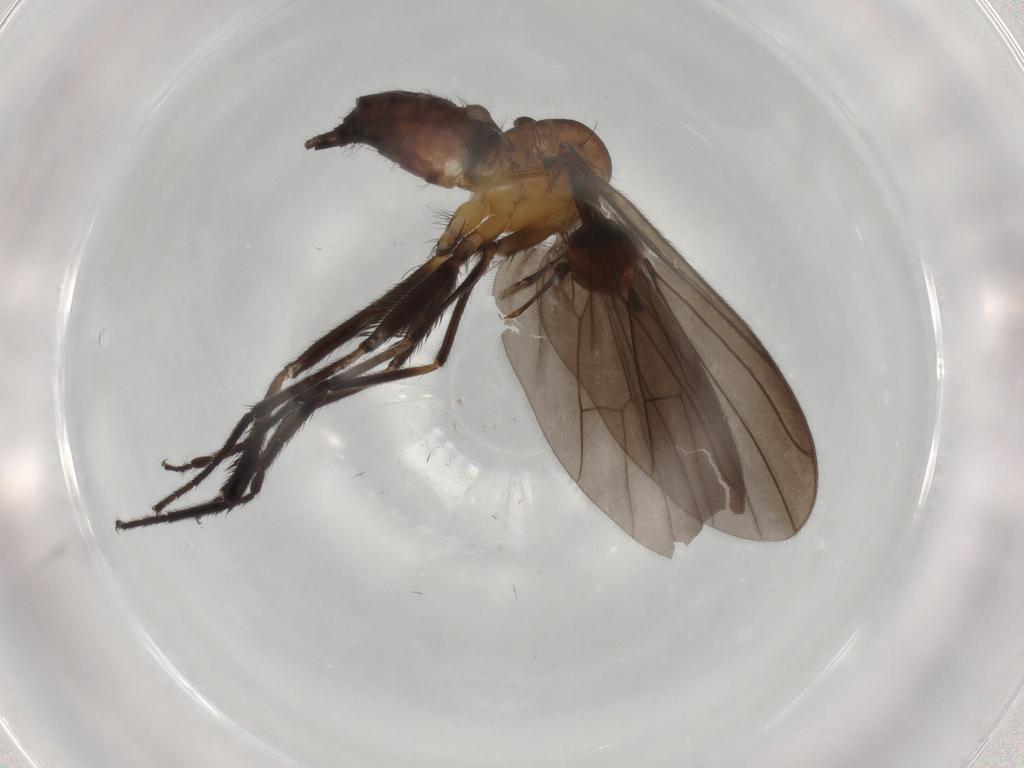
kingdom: Animalia
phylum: Arthropoda
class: Insecta
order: Diptera
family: Empididae
